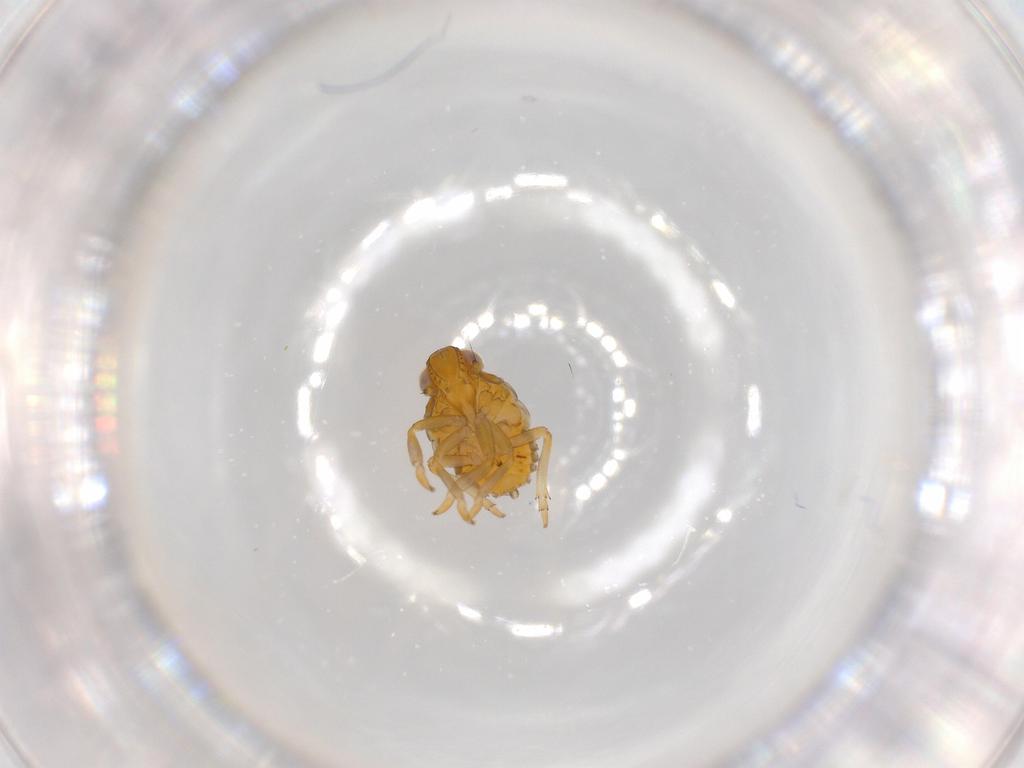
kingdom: Animalia
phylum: Arthropoda
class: Insecta
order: Hemiptera
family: Issidae
